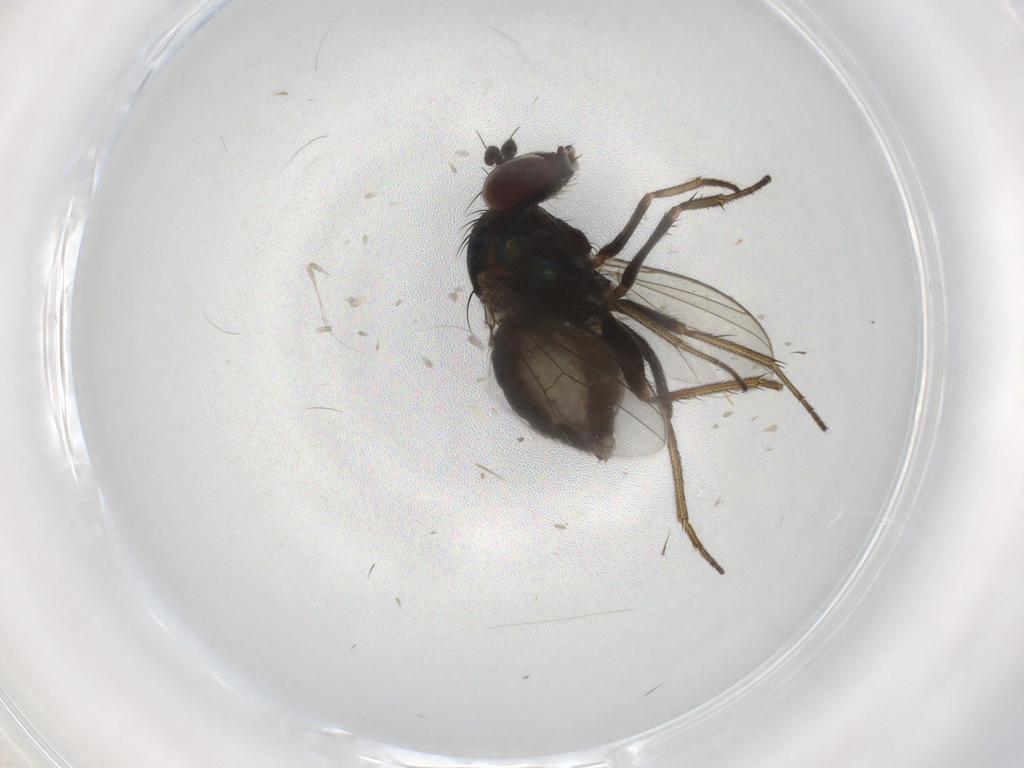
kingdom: Animalia
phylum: Arthropoda
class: Insecta
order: Diptera
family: Dolichopodidae
